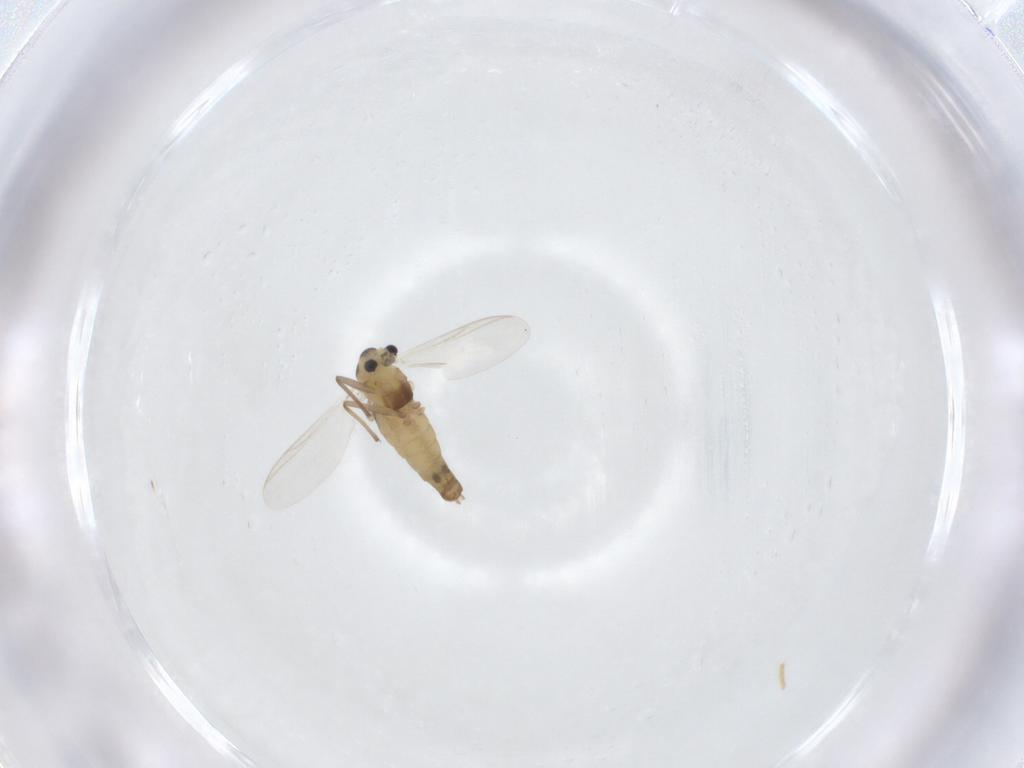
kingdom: Animalia
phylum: Arthropoda
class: Insecta
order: Diptera
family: Chironomidae
